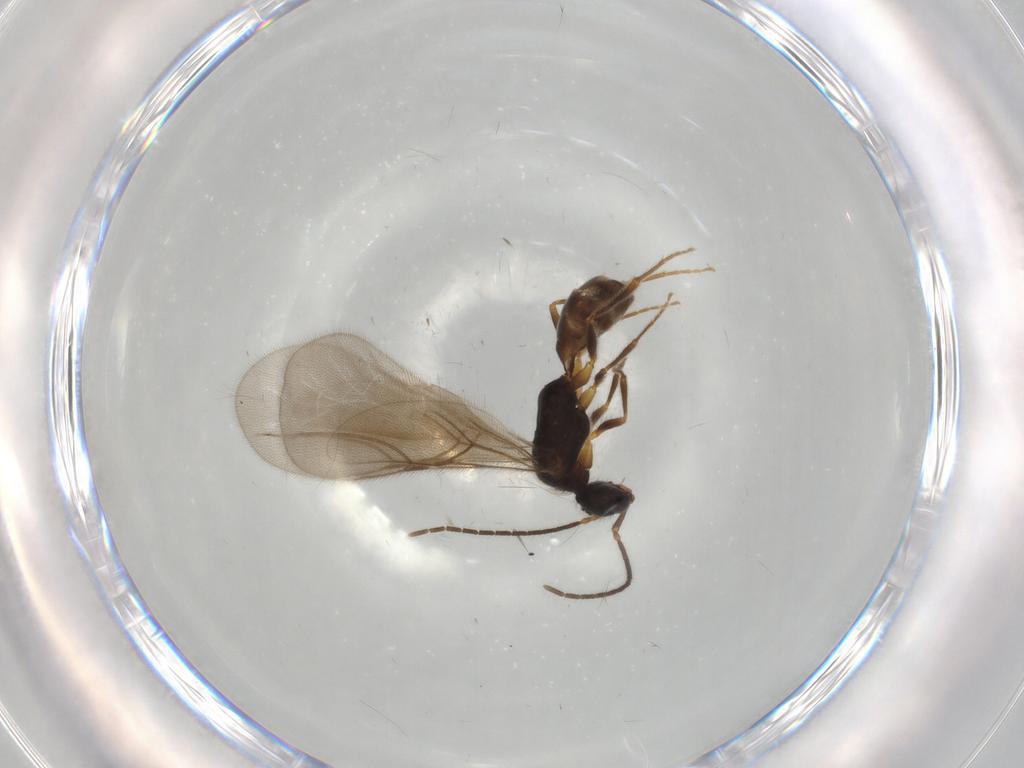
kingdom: Animalia
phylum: Arthropoda
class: Insecta
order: Hymenoptera
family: Bethylidae
